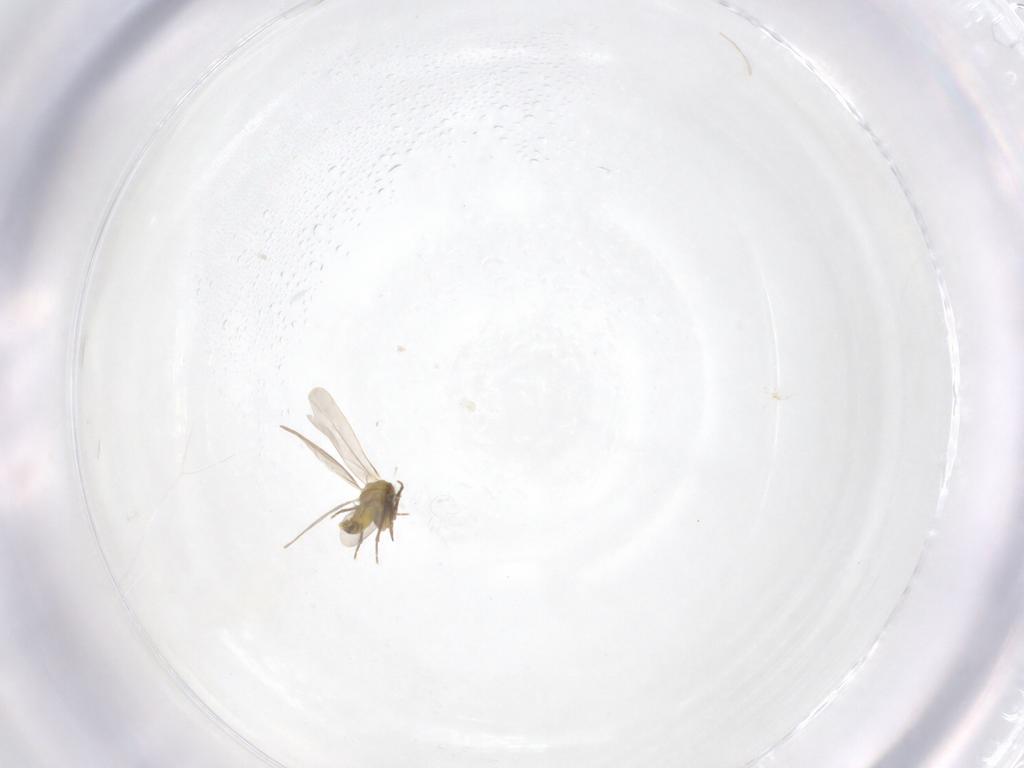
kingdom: Animalia
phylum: Arthropoda
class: Insecta
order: Hemiptera
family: Aleyrodidae
